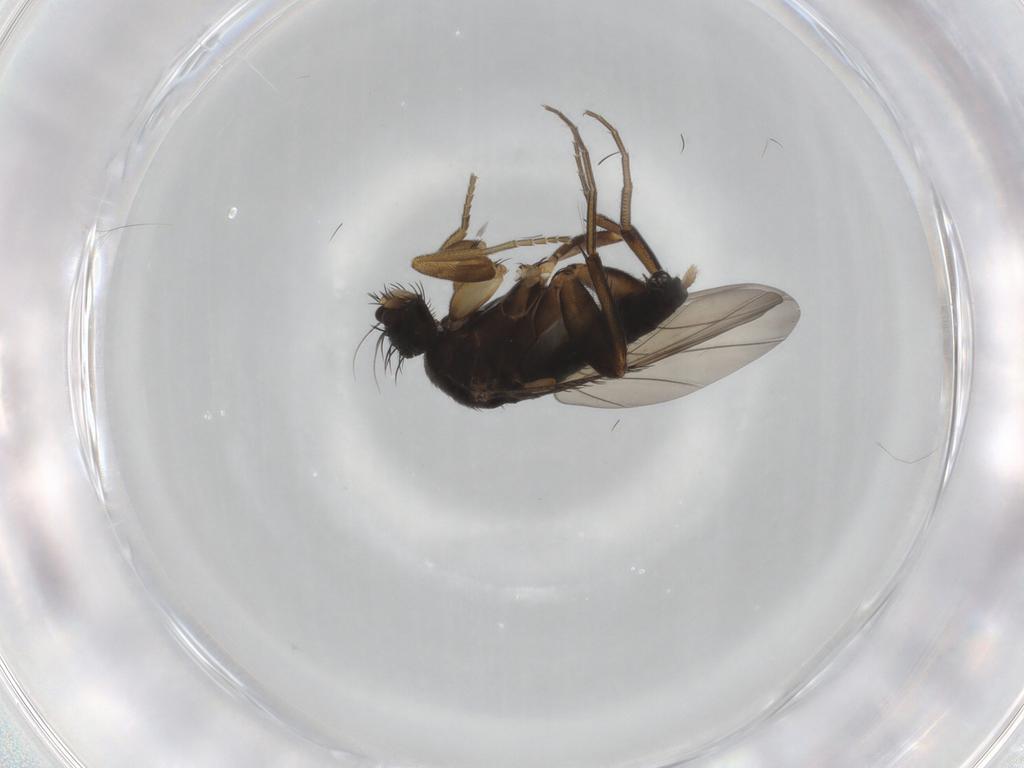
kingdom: Animalia
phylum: Arthropoda
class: Insecta
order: Diptera
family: Phoridae
